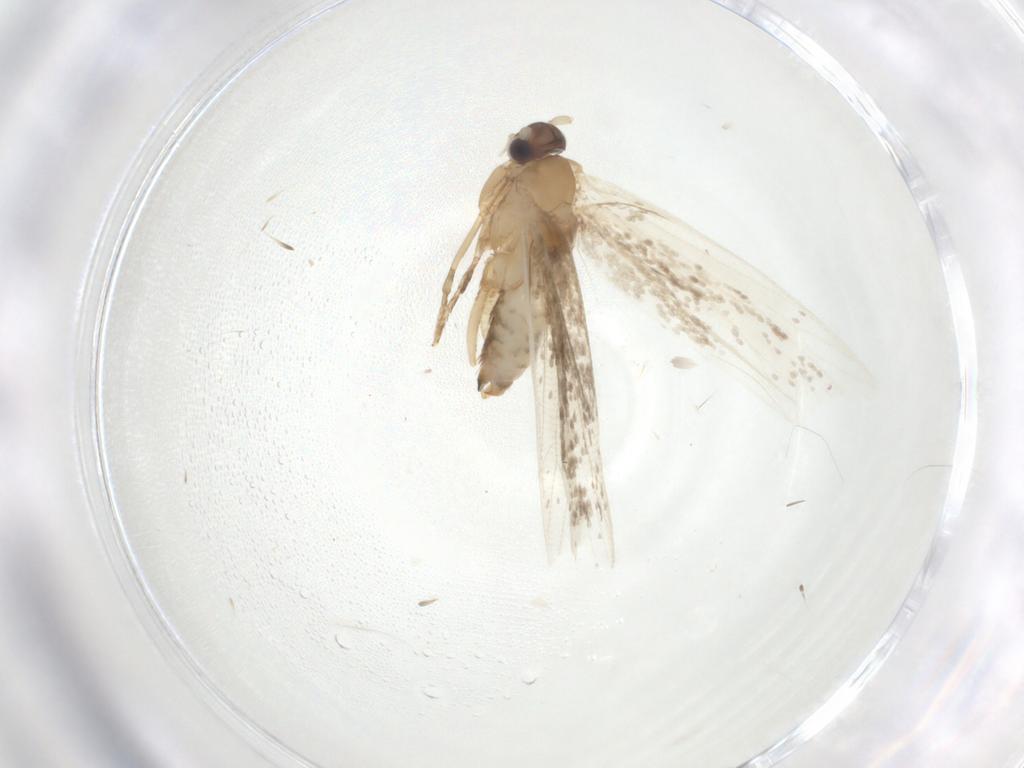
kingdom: Animalia
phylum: Arthropoda
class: Insecta
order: Lepidoptera
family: Tineidae
